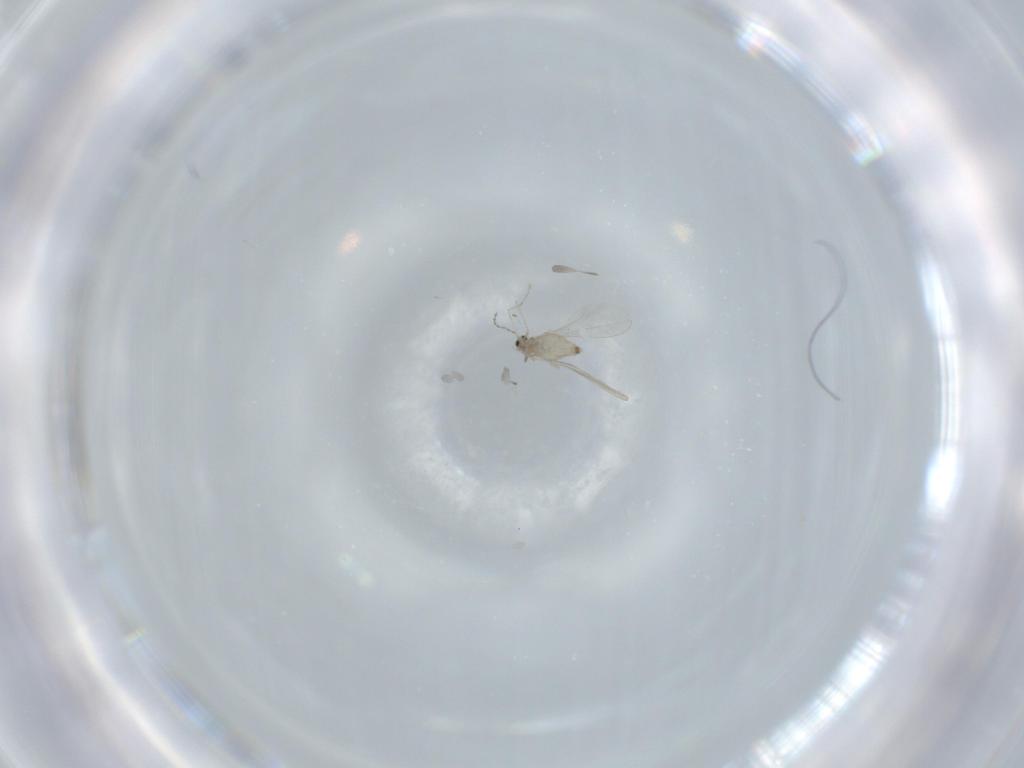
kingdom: Animalia
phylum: Arthropoda
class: Insecta
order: Diptera
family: Cecidomyiidae
